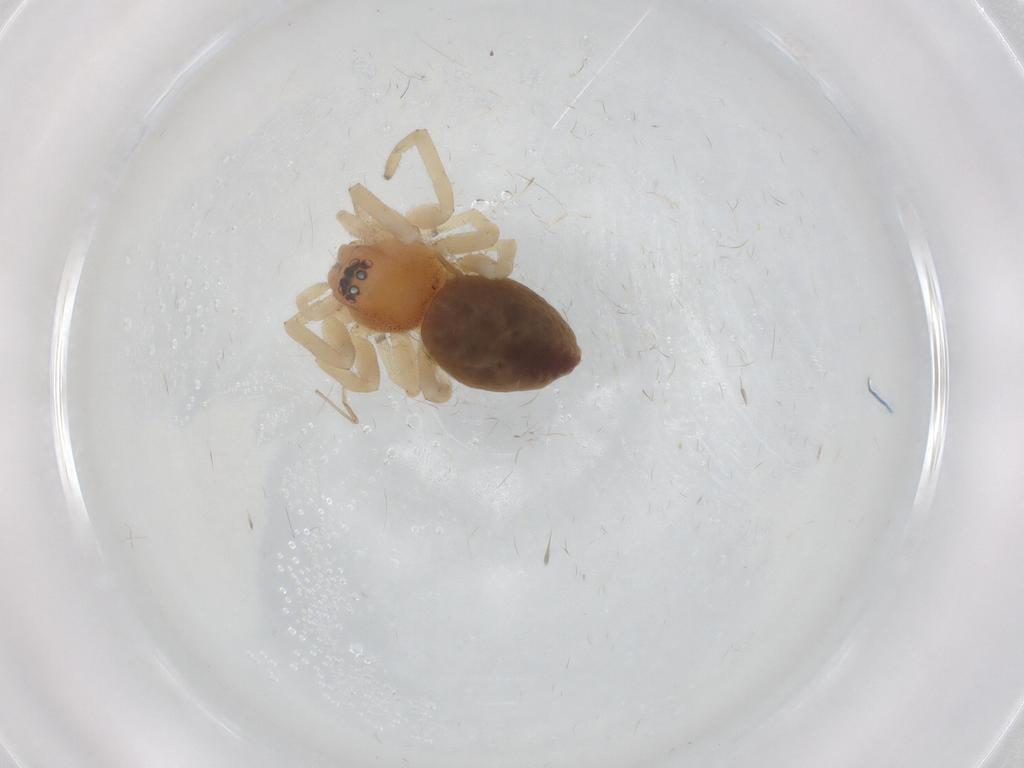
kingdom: Animalia
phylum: Arthropoda
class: Arachnida
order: Araneae
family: Trachelidae
